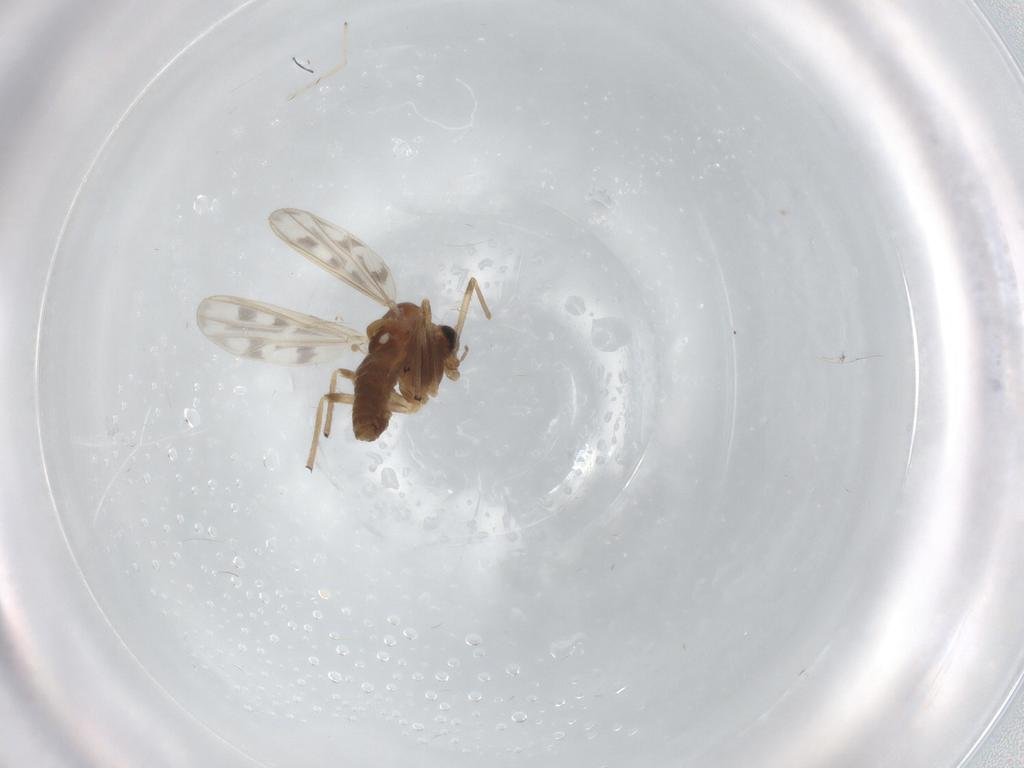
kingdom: Animalia
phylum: Arthropoda
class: Insecta
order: Diptera
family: Chironomidae
